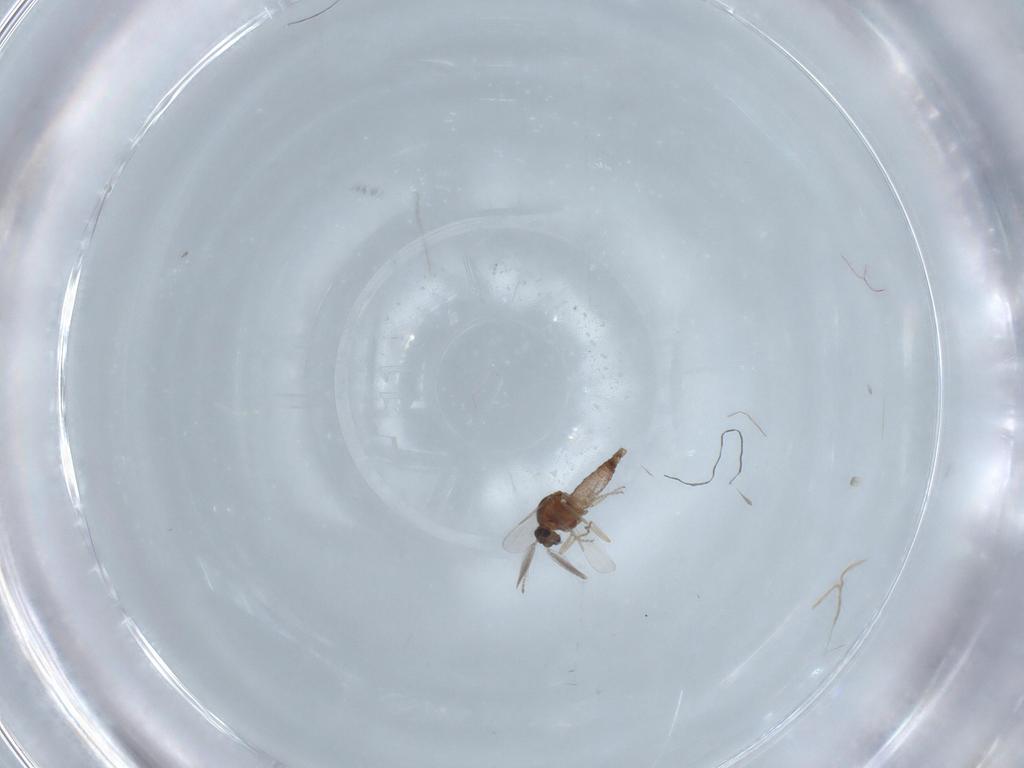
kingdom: Animalia
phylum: Arthropoda
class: Insecta
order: Diptera
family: Ceratopogonidae
